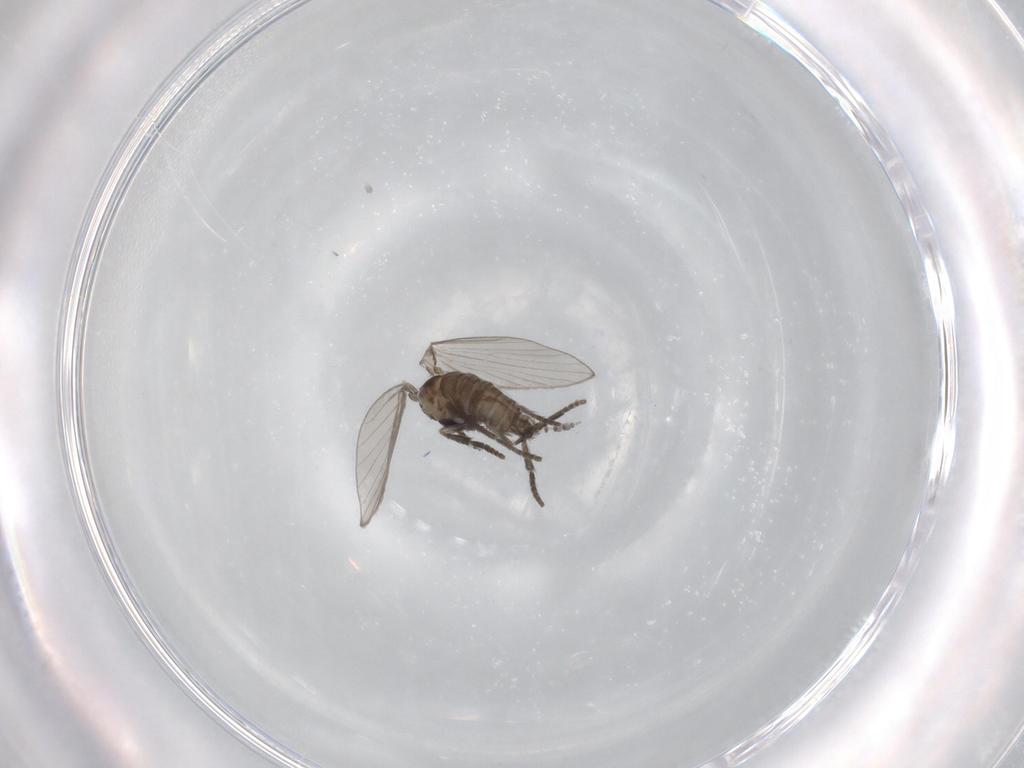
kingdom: Animalia
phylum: Arthropoda
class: Insecta
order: Diptera
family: Psychodidae
